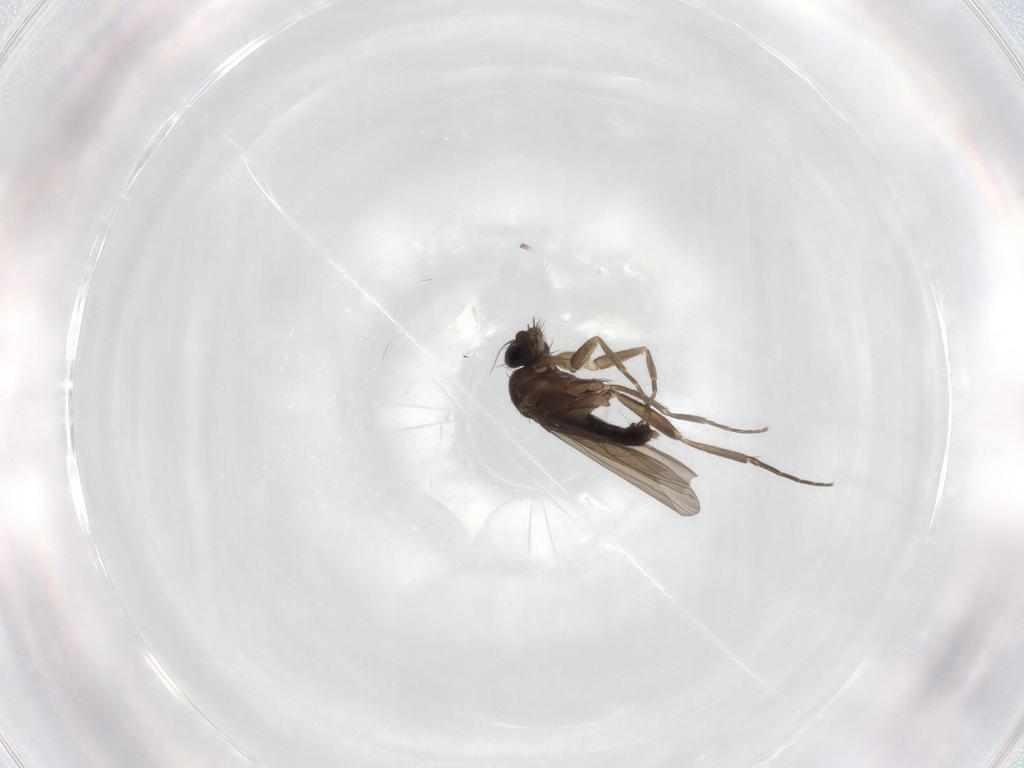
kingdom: Animalia
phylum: Arthropoda
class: Insecta
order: Diptera
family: Phoridae
